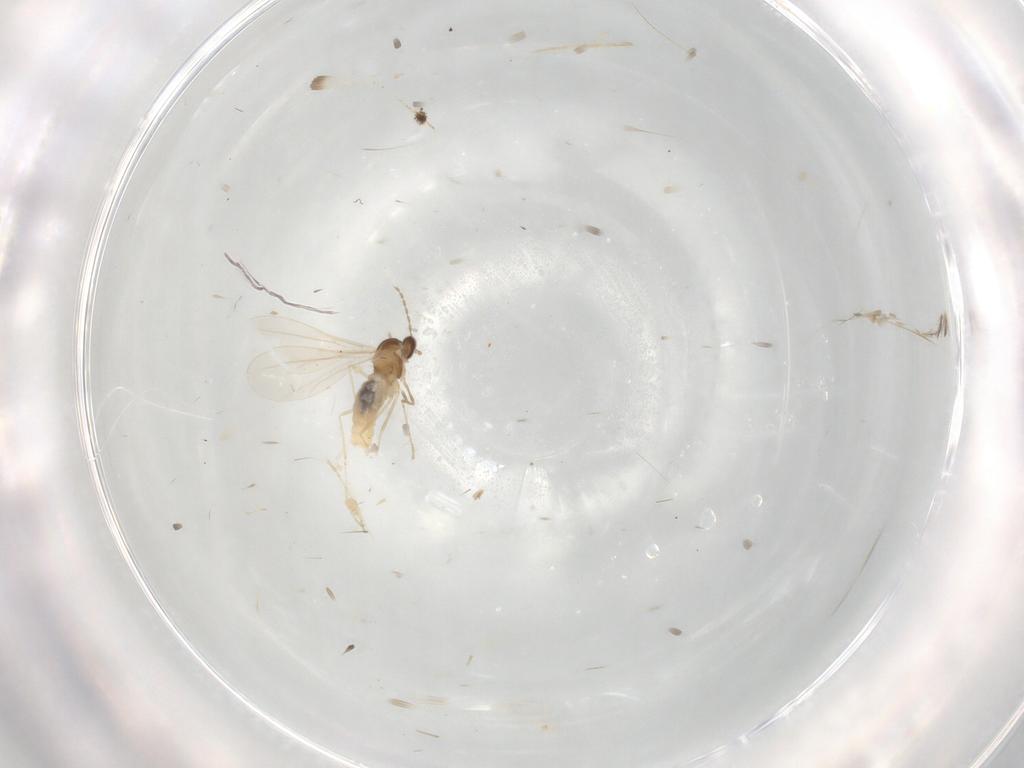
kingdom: Animalia
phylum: Arthropoda
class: Insecta
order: Diptera
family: Cecidomyiidae
